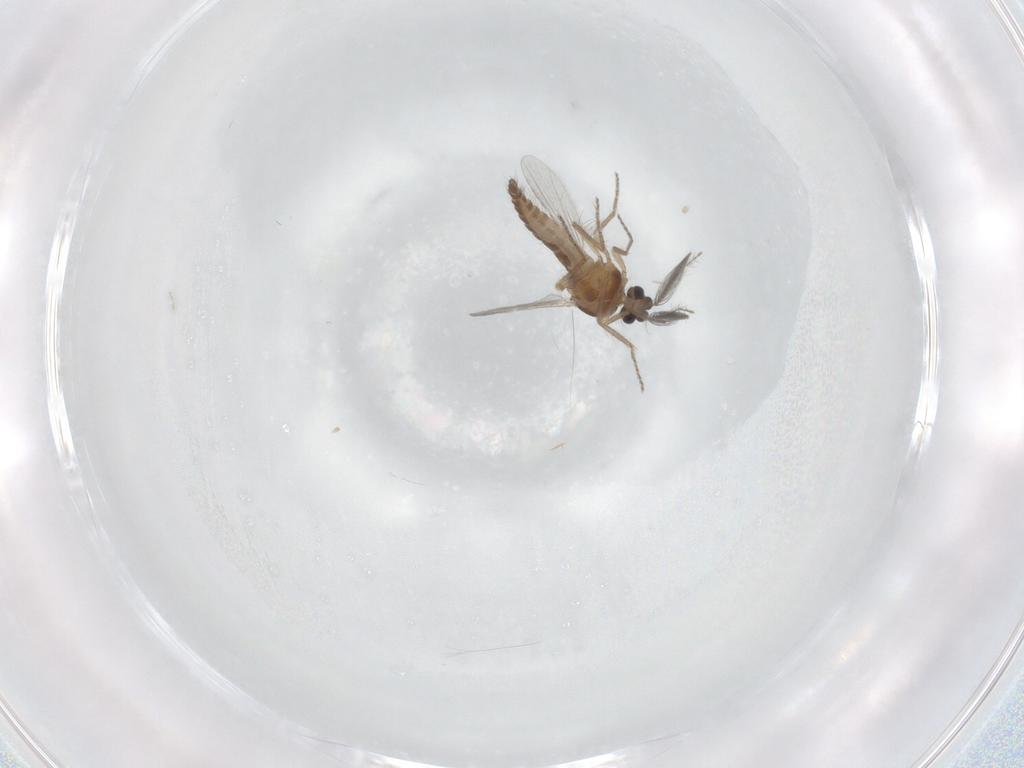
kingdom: Animalia
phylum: Arthropoda
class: Insecta
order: Diptera
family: Ceratopogonidae
